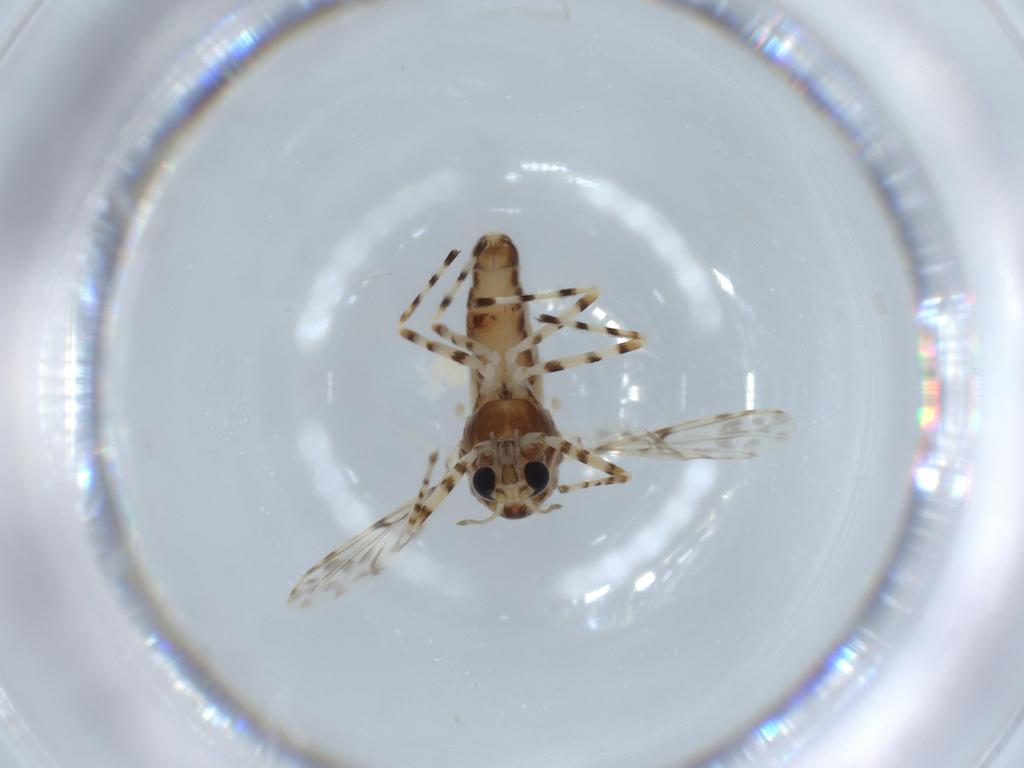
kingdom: Animalia
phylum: Arthropoda
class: Insecta
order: Diptera
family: Chironomidae
